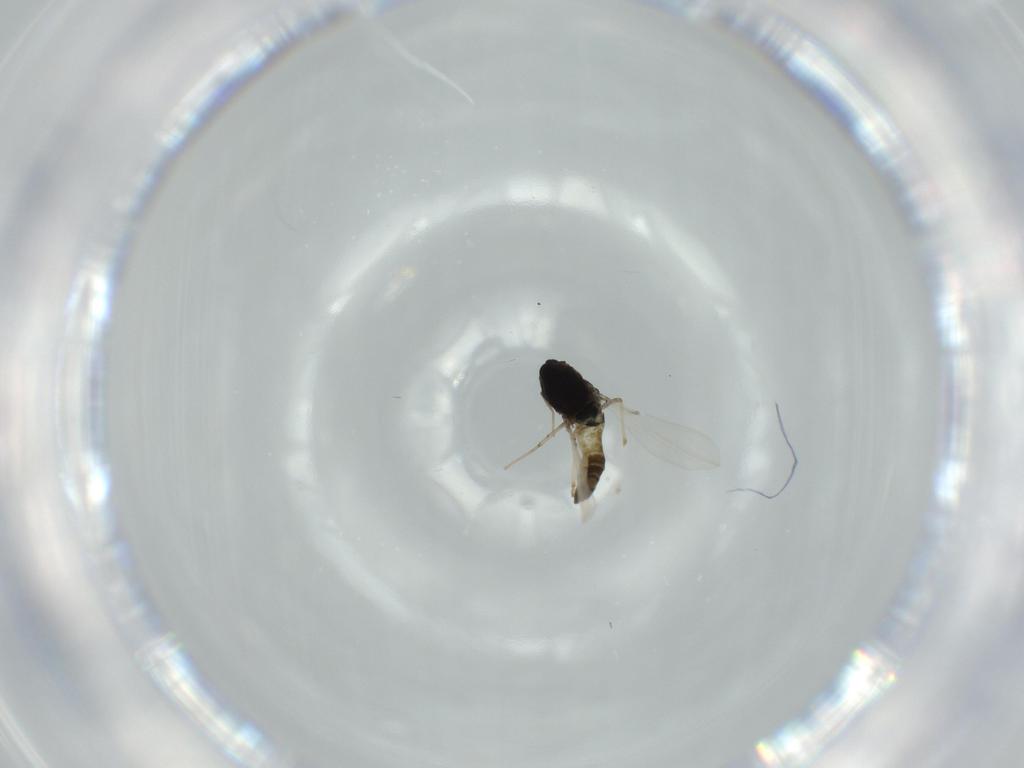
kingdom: Animalia
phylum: Arthropoda
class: Insecta
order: Diptera
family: Chironomidae
